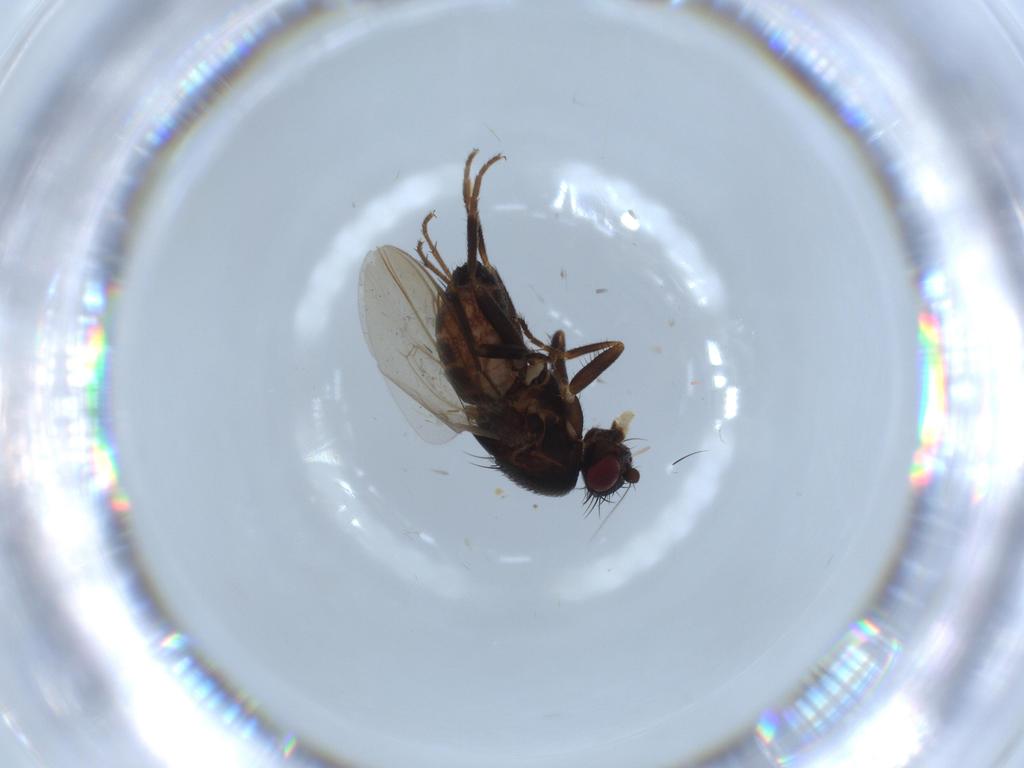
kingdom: Animalia
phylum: Arthropoda
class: Insecta
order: Diptera
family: Sphaeroceridae
